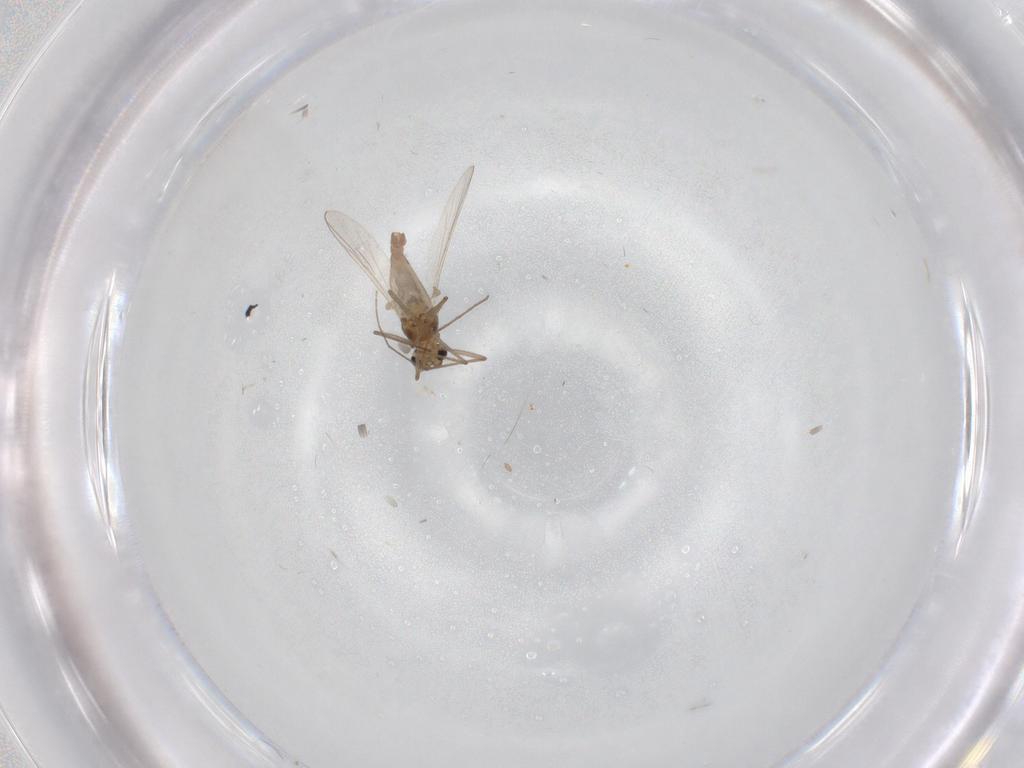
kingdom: Animalia
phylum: Arthropoda
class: Insecta
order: Diptera
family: Chironomidae
